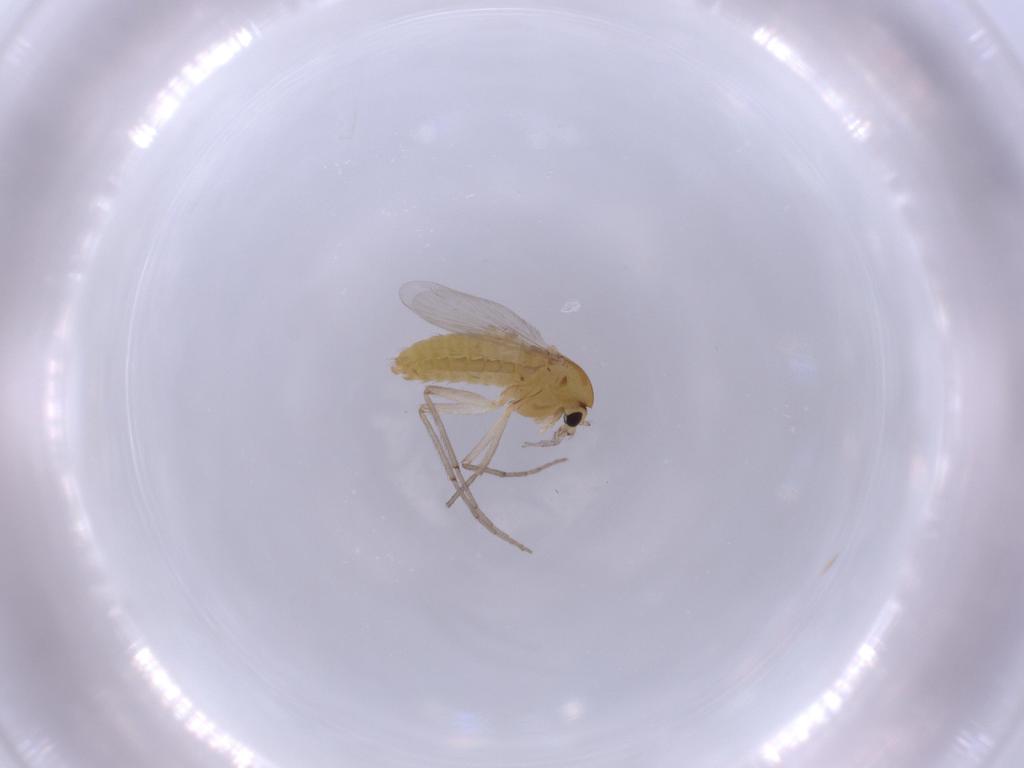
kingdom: Animalia
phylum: Arthropoda
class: Insecta
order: Diptera
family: Chironomidae
